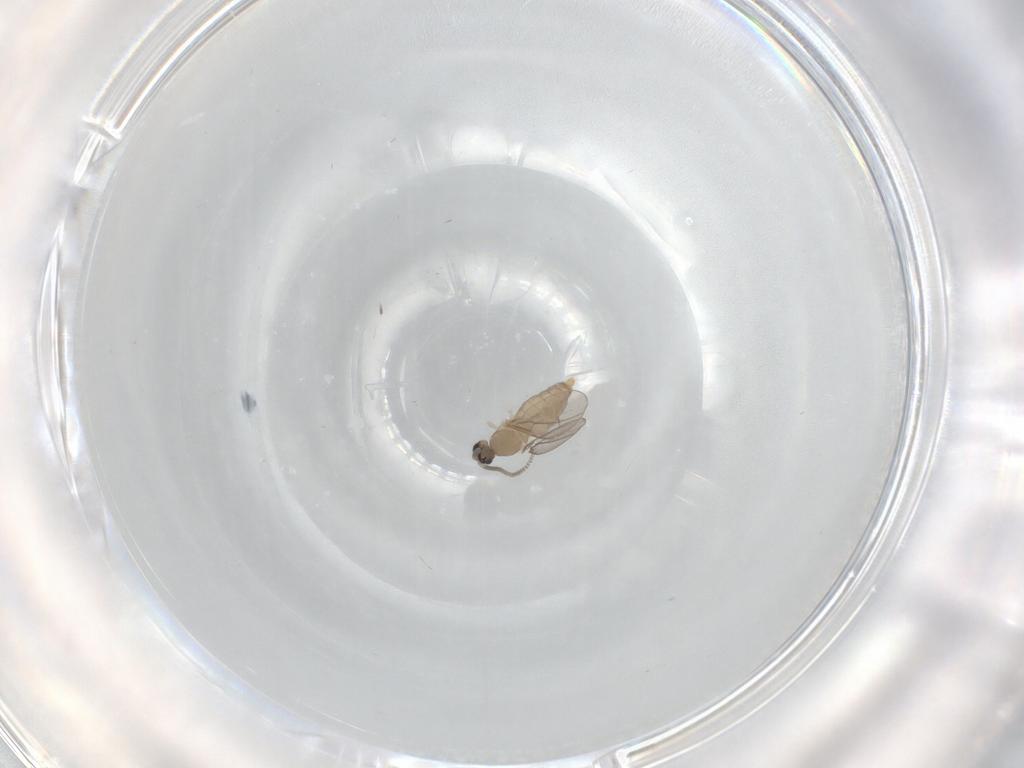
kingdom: Animalia
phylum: Arthropoda
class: Insecta
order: Diptera
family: Cecidomyiidae
